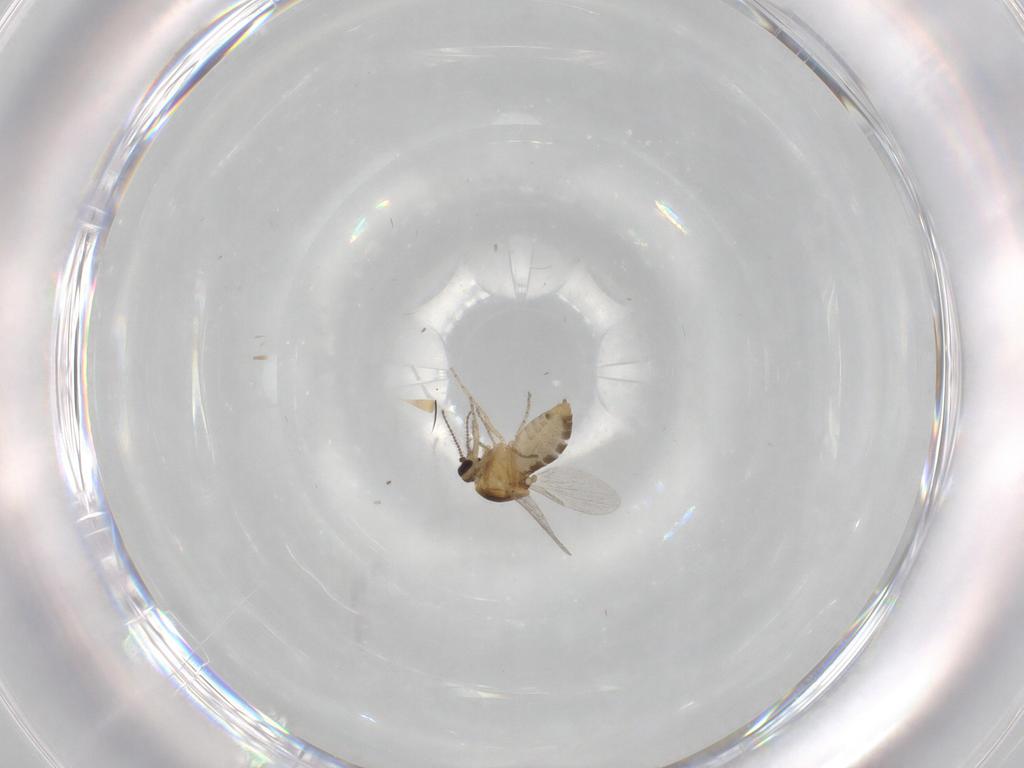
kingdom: Animalia
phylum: Arthropoda
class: Insecta
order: Diptera
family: Ceratopogonidae
